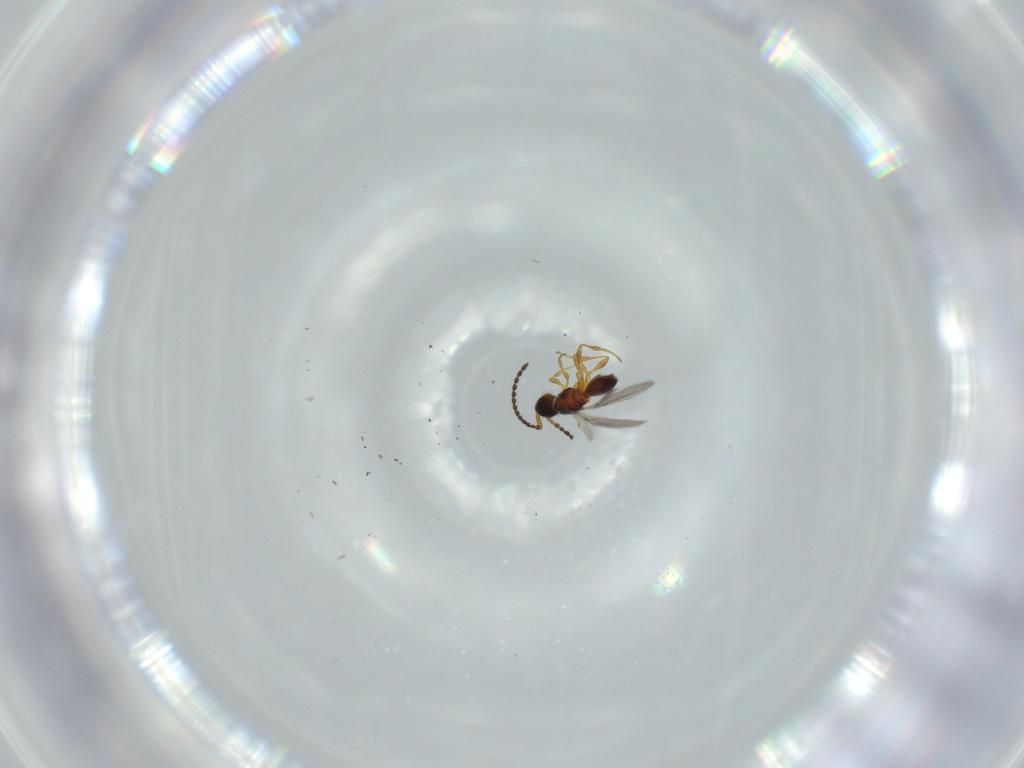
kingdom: Animalia
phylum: Arthropoda
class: Insecta
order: Hymenoptera
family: Diapriidae
